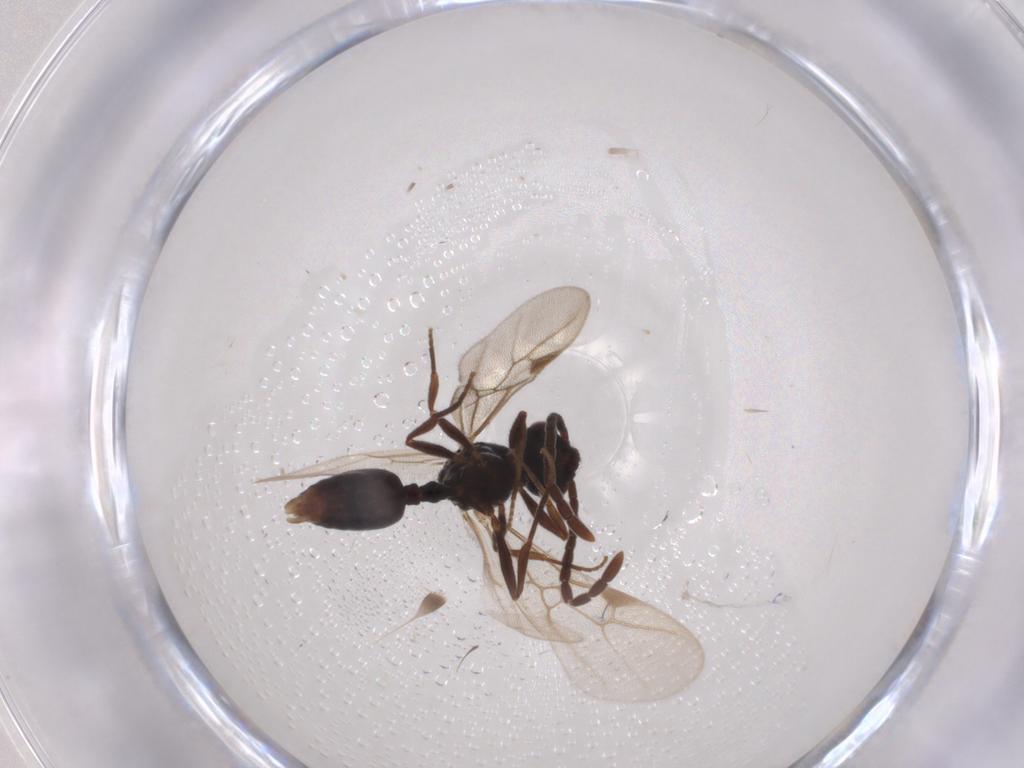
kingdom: Animalia
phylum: Arthropoda
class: Insecta
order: Hymenoptera
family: Formicidae
